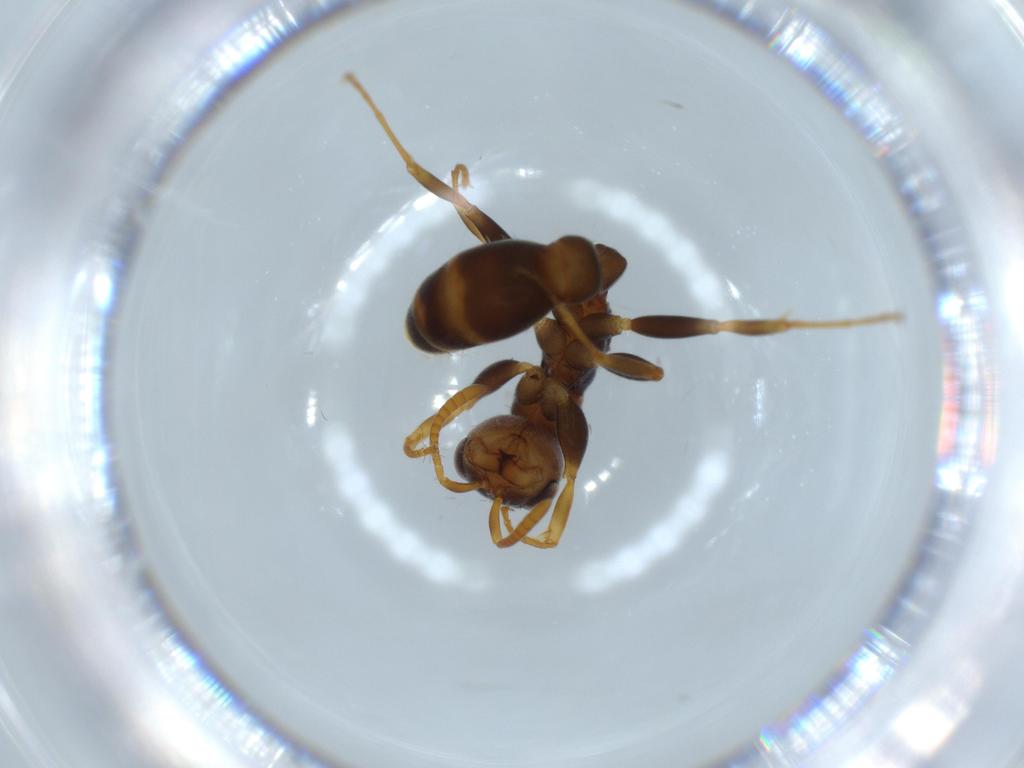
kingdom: Animalia
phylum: Arthropoda
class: Insecta
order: Hymenoptera
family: Formicidae
